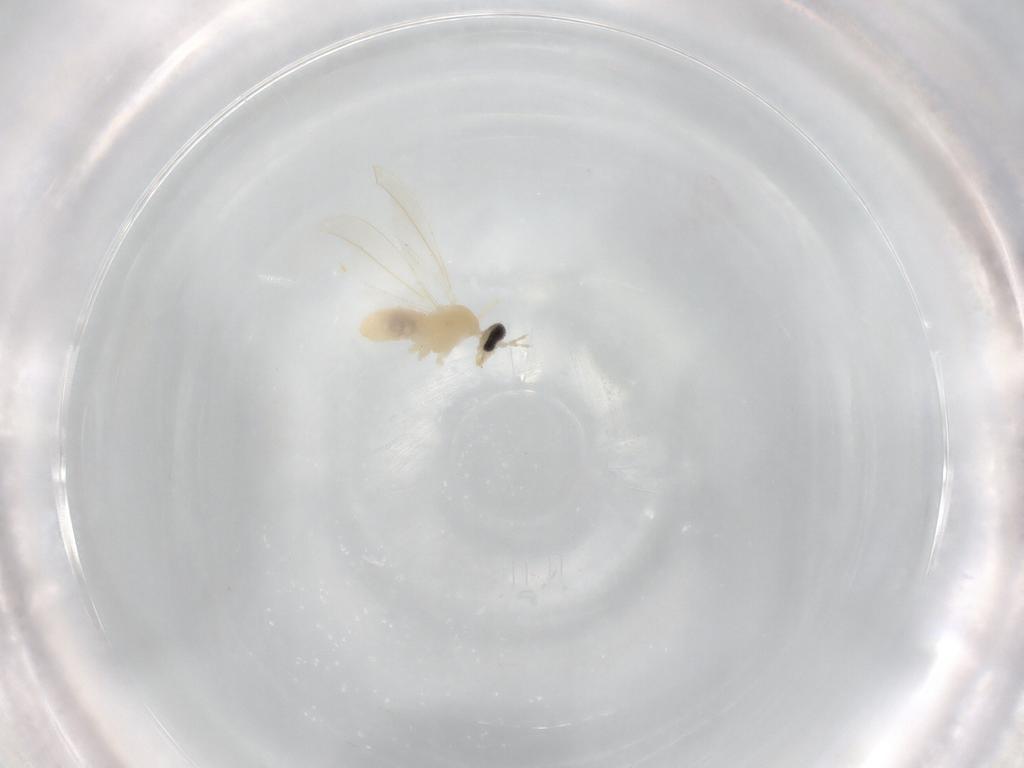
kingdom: Animalia
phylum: Arthropoda
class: Insecta
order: Diptera
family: Cecidomyiidae
